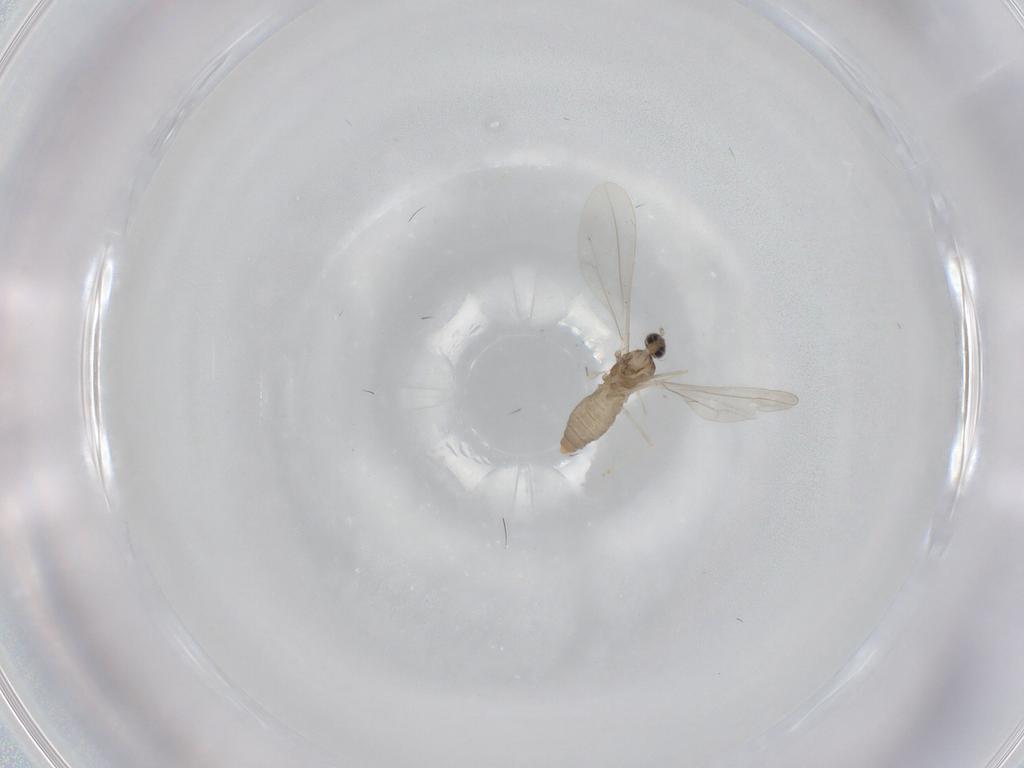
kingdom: Animalia
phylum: Arthropoda
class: Insecta
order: Diptera
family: Cecidomyiidae
